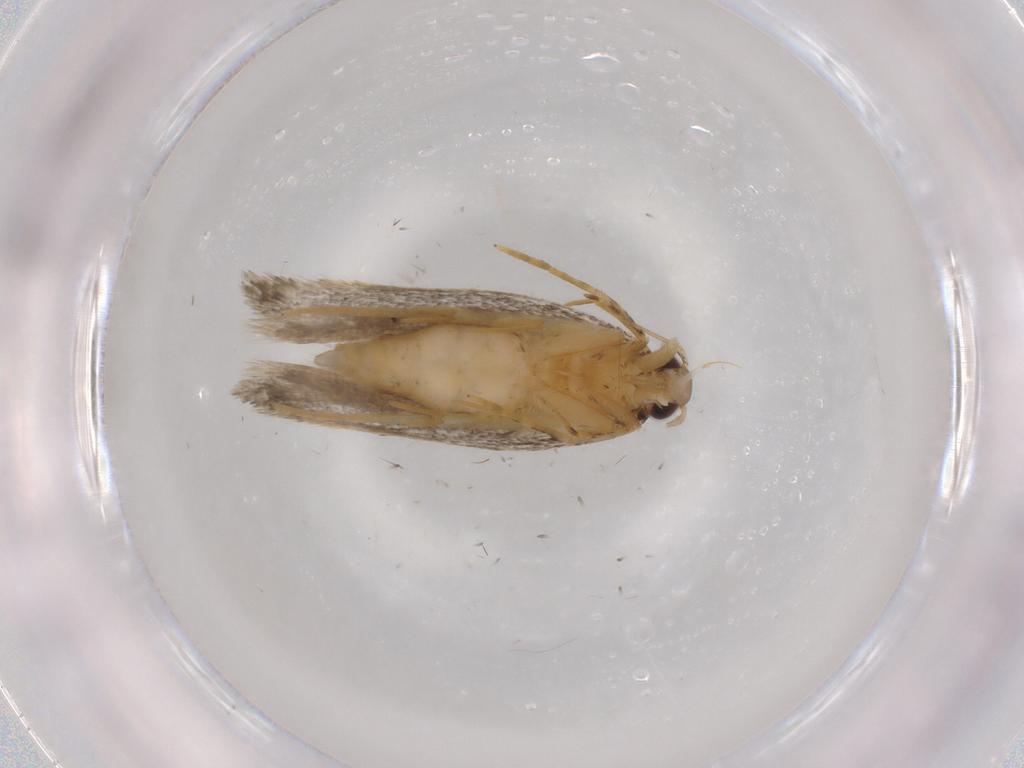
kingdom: Animalia
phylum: Arthropoda
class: Insecta
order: Lepidoptera
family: Autostichidae
